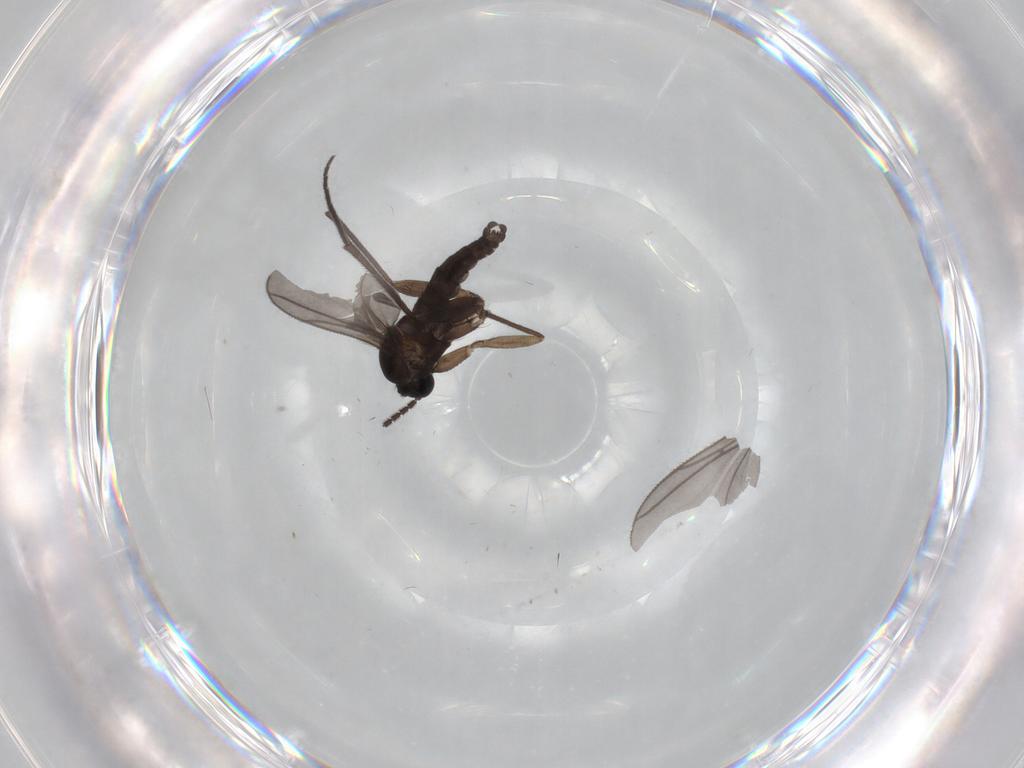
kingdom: Animalia
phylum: Arthropoda
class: Insecta
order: Diptera
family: Sciaridae
